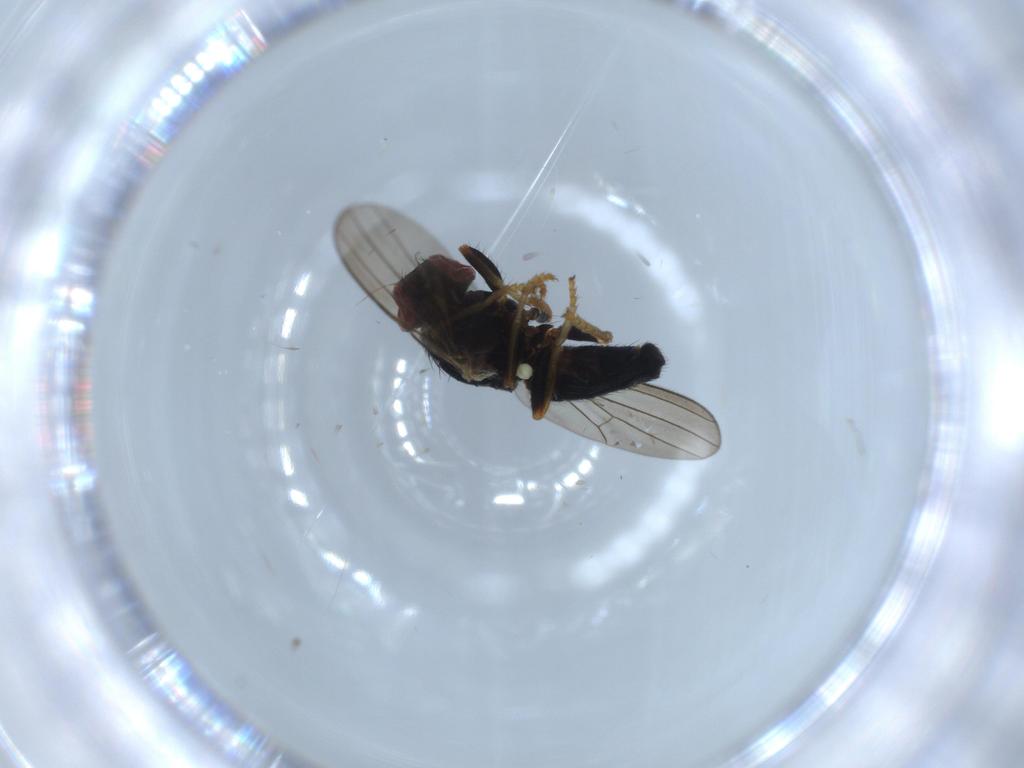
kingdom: Animalia
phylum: Arthropoda
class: Insecta
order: Diptera
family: Chamaemyiidae
